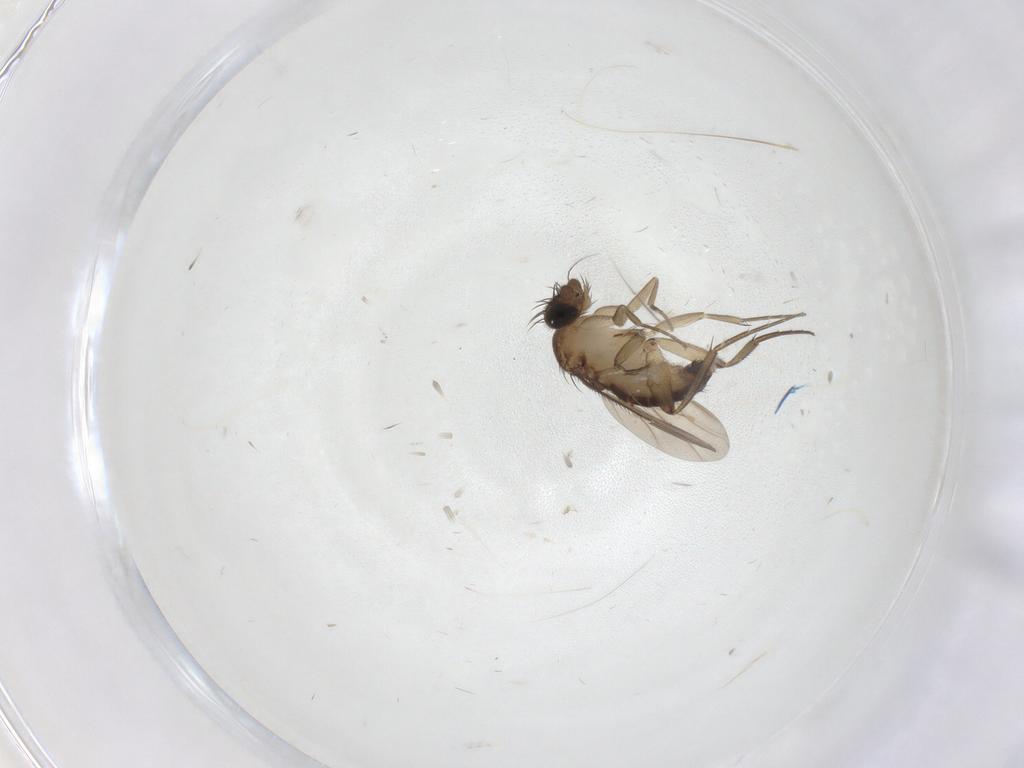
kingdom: Animalia
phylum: Arthropoda
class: Insecta
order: Diptera
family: Phoridae
